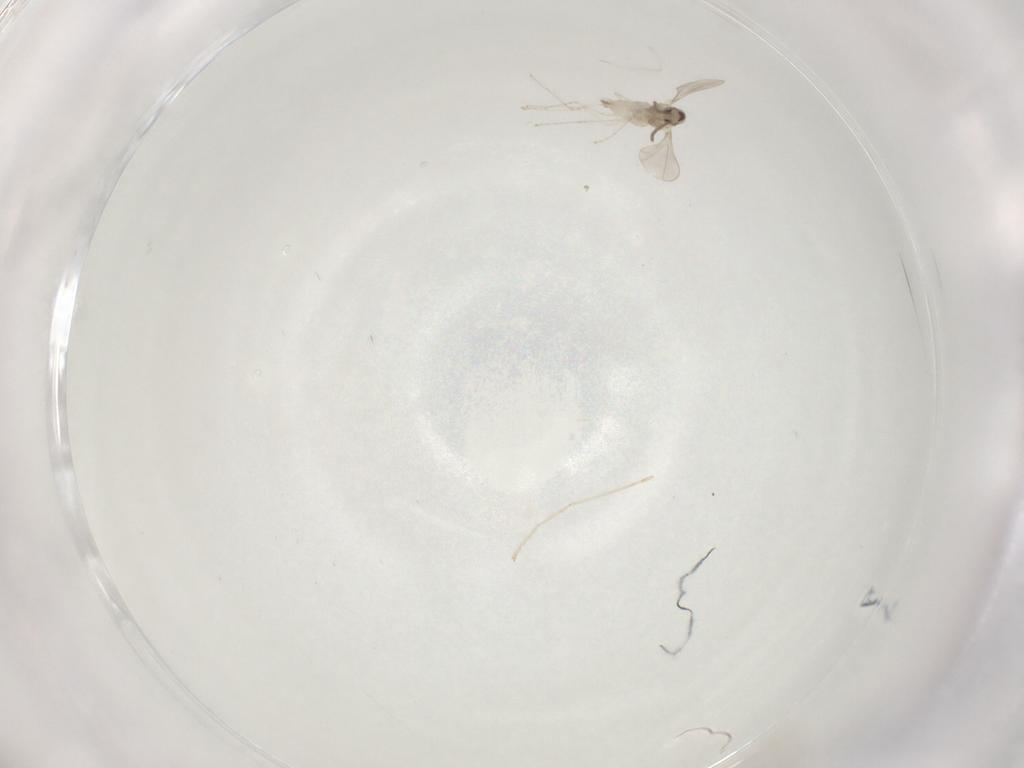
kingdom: Animalia
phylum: Arthropoda
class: Insecta
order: Diptera
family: Cecidomyiidae
